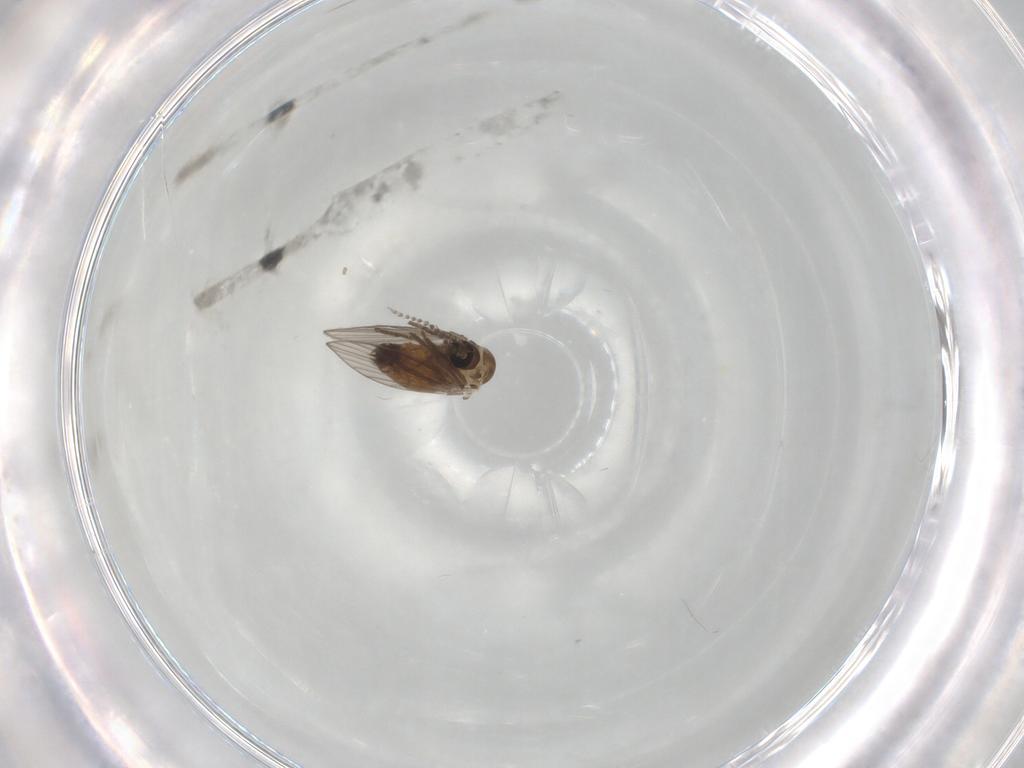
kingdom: Animalia
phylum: Arthropoda
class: Insecta
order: Diptera
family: Psychodidae
